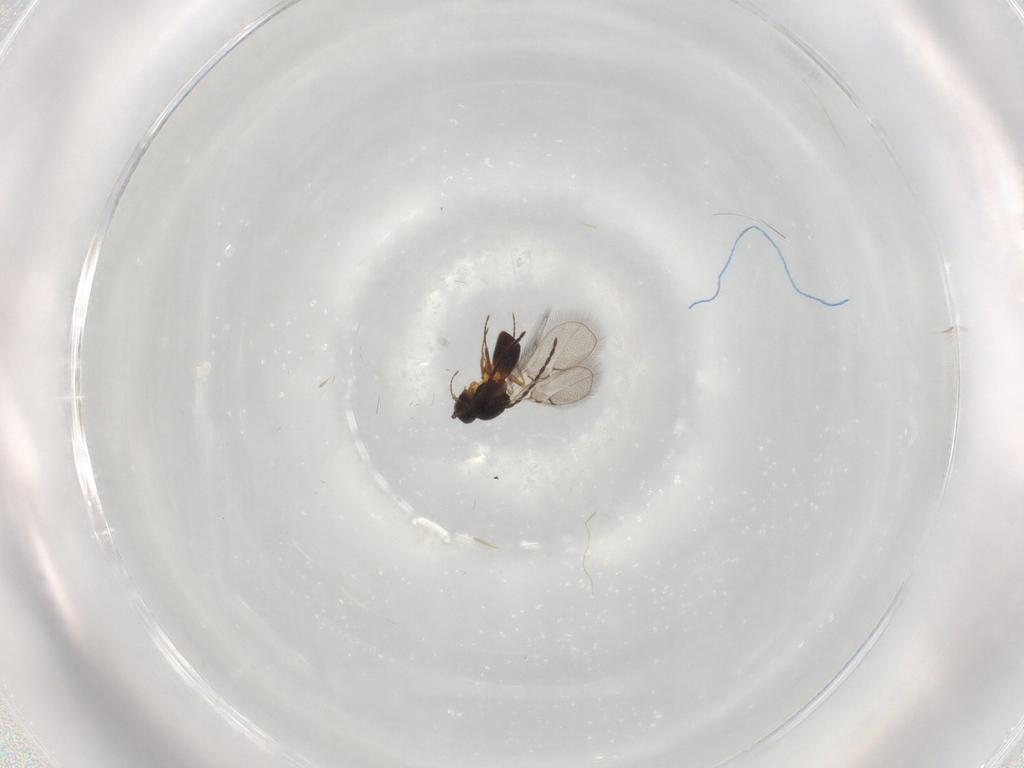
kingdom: Animalia
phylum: Arthropoda
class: Insecta
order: Hymenoptera
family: Figitidae
